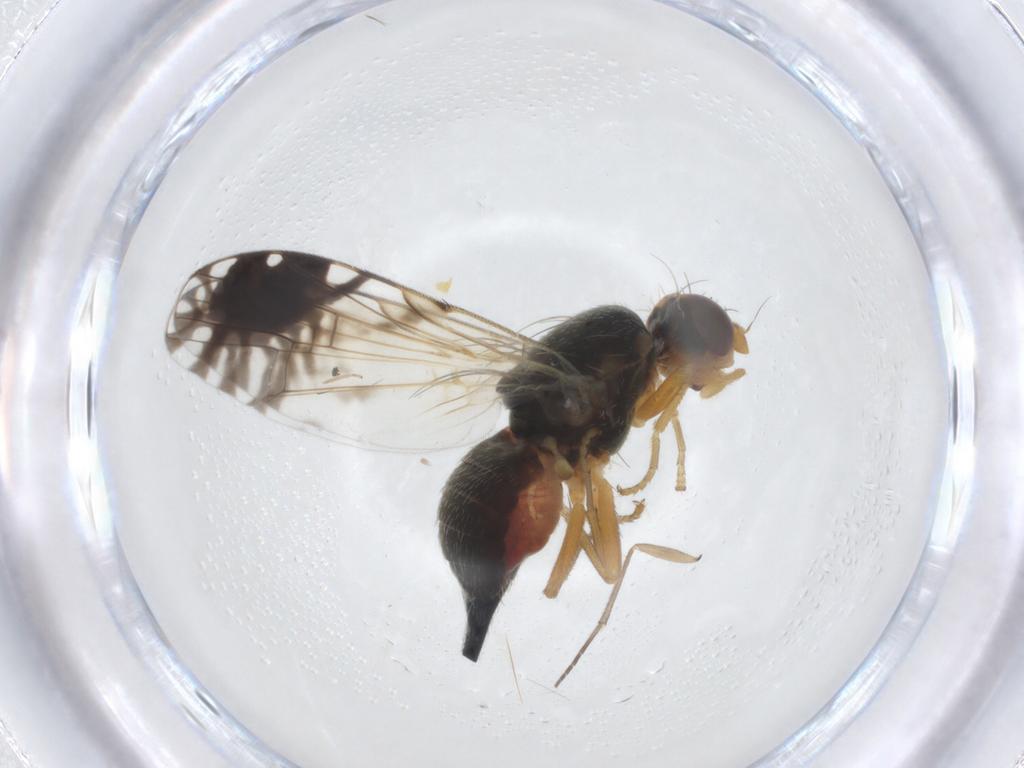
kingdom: Animalia
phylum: Arthropoda
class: Insecta
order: Diptera
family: Tephritidae
